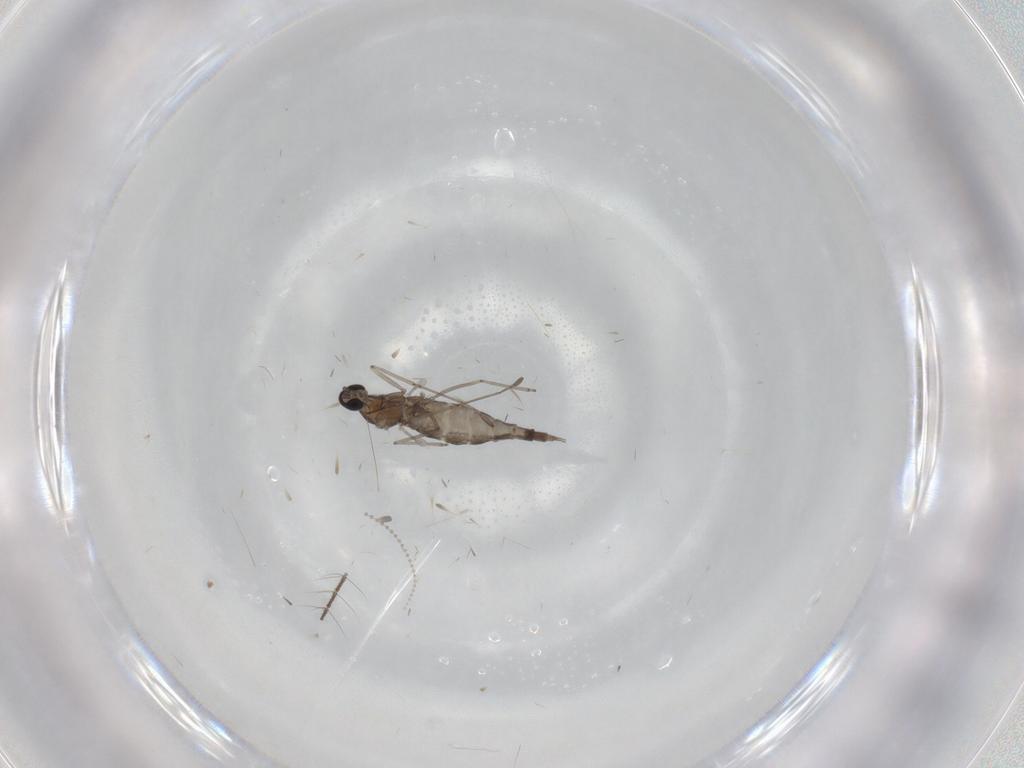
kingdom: Animalia
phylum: Arthropoda
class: Insecta
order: Diptera
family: Cecidomyiidae
